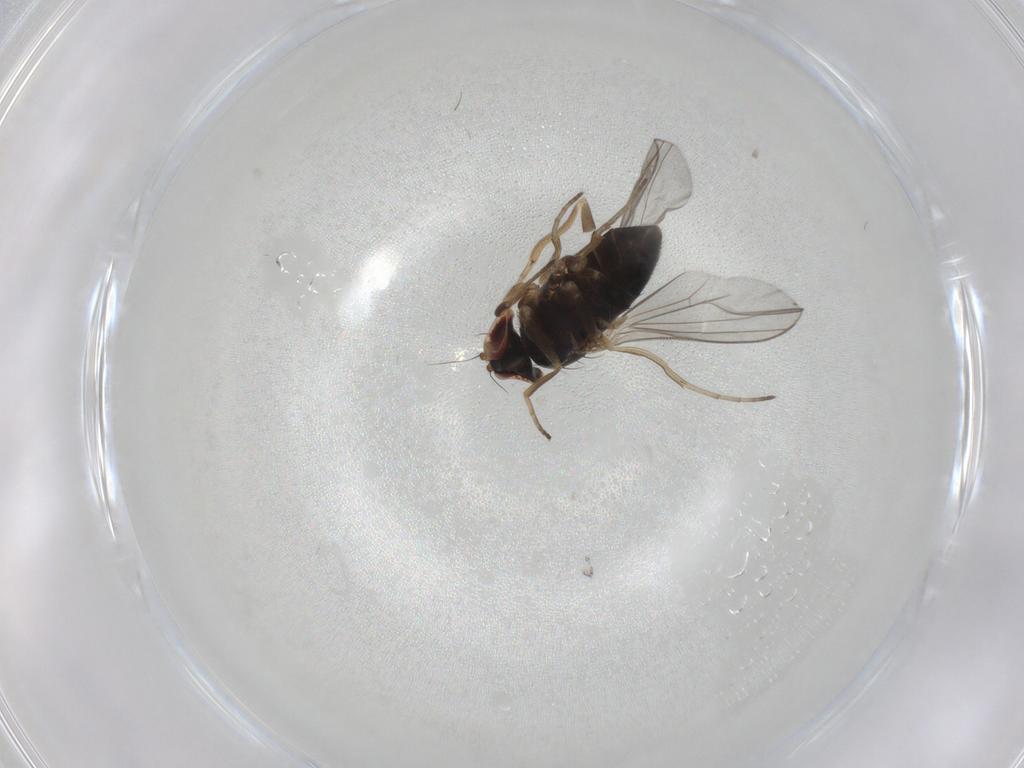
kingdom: Animalia
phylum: Arthropoda
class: Insecta
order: Diptera
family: Dolichopodidae
